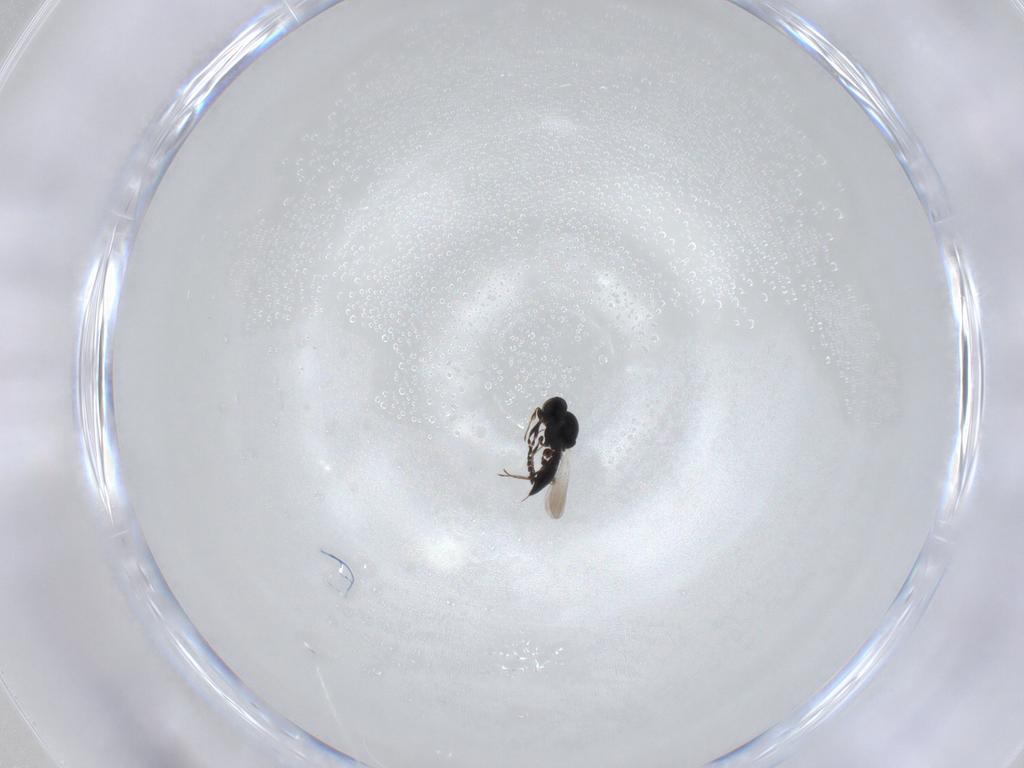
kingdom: Animalia
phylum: Arthropoda
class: Insecta
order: Hymenoptera
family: Platygastridae
